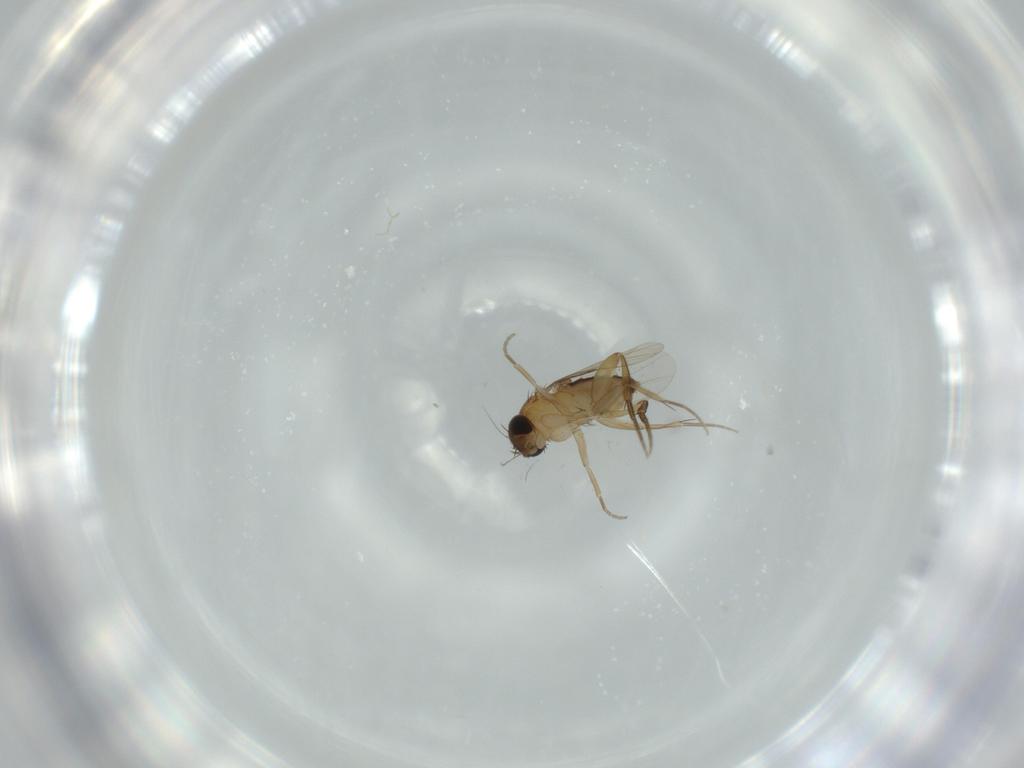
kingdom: Animalia
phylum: Arthropoda
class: Insecta
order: Diptera
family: Phoridae
